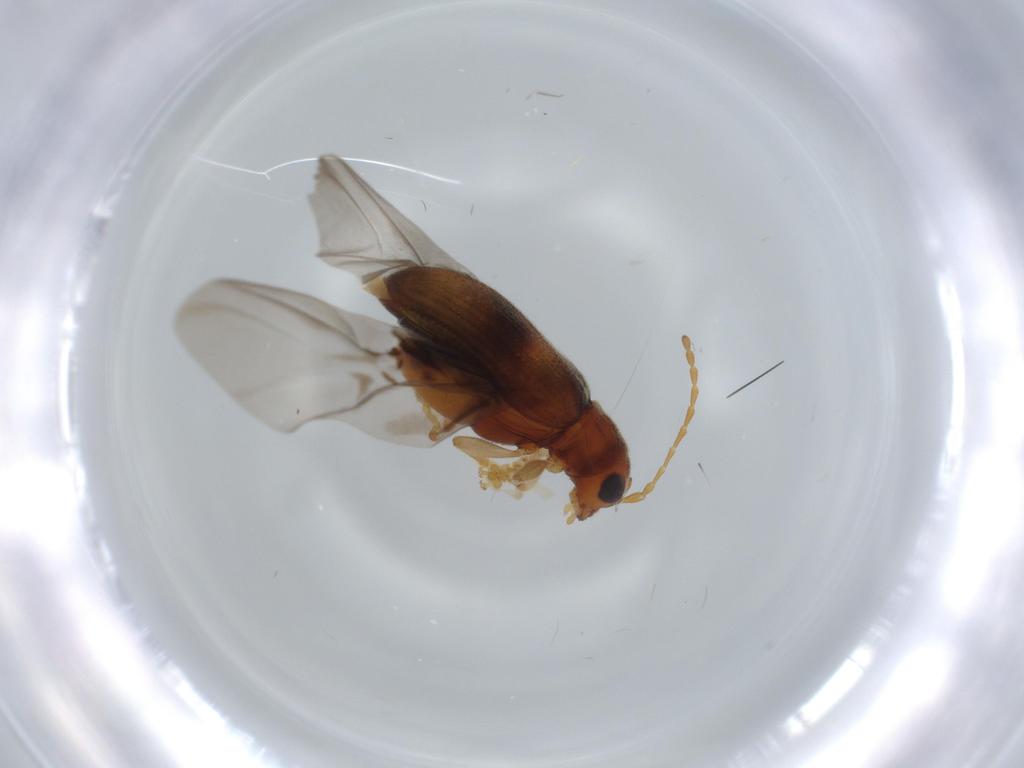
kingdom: Animalia
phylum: Arthropoda
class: Insecta
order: Coleoptera
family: Chrysomelidae
